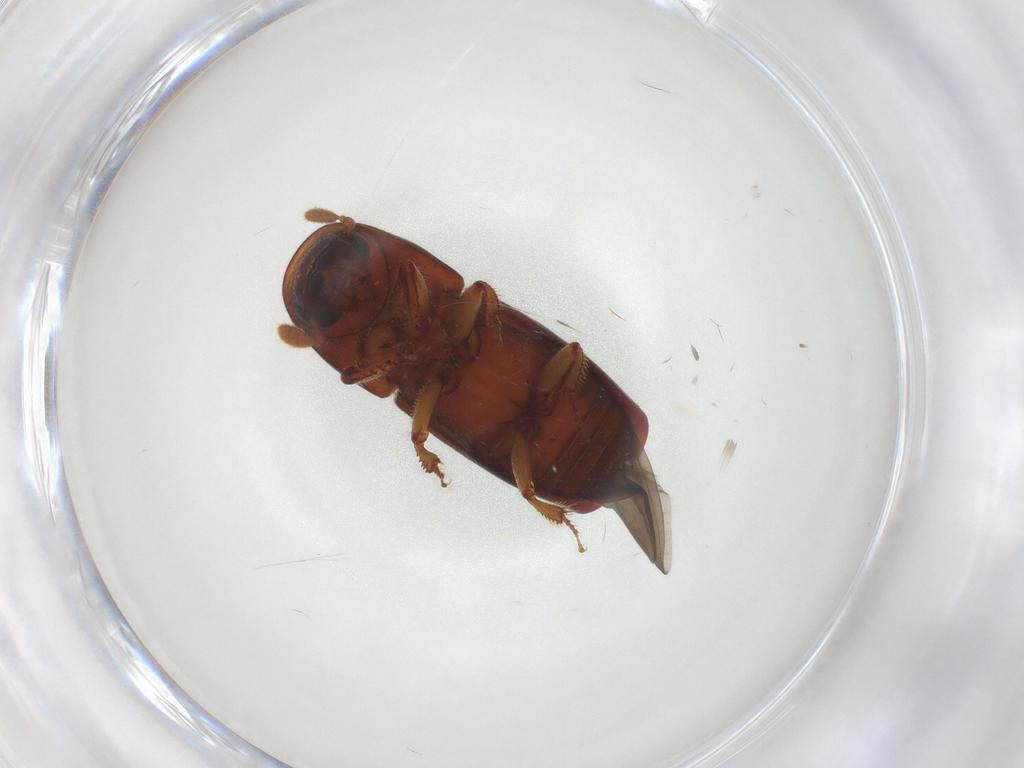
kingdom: Animalia
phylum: Arthropoda
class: Insecta
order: Coleoptera
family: Curculionidae
